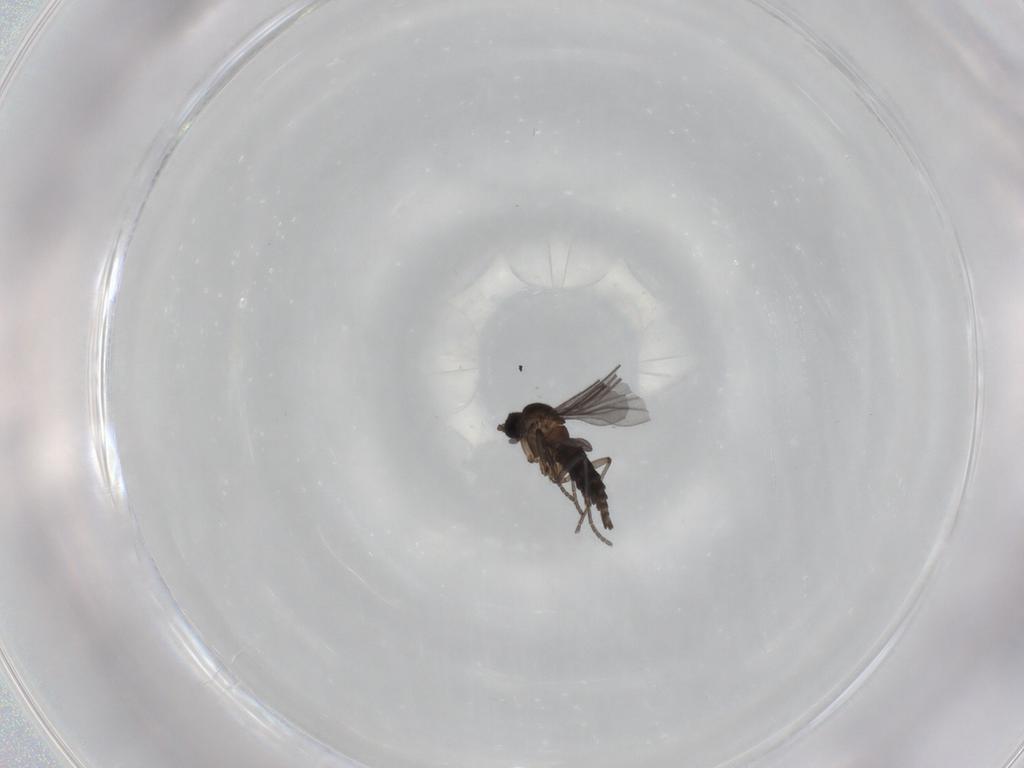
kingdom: Animalia
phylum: Arthropoda
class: Insecta
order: Diptera
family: Sciaridae
